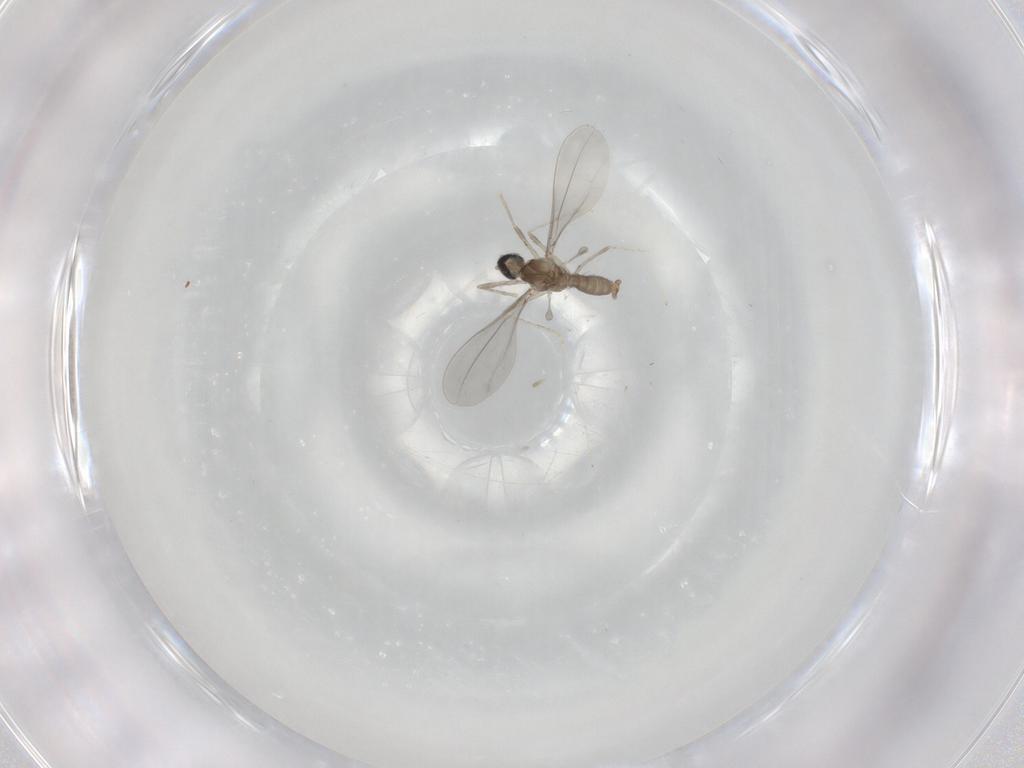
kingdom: Animalia
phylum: Arthropoda
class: Insecta
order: Diptera
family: Cecidomyiidae
